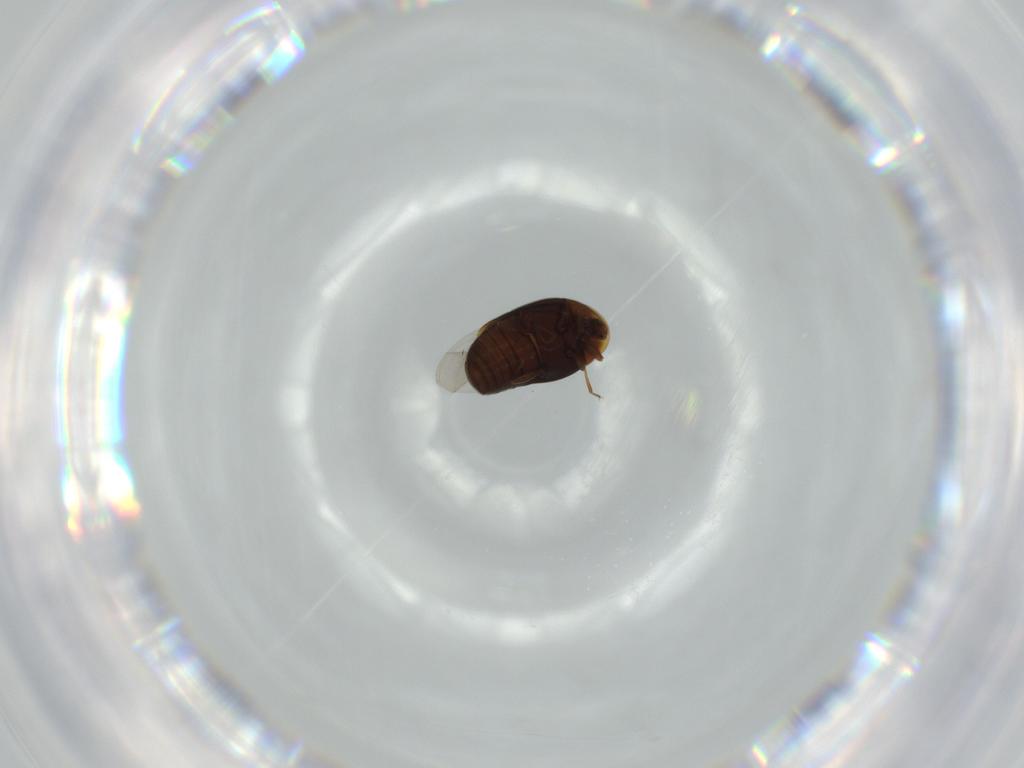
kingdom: Animalia
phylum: Arthropoda
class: Insecta
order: Coleoptera
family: Corylophidae
